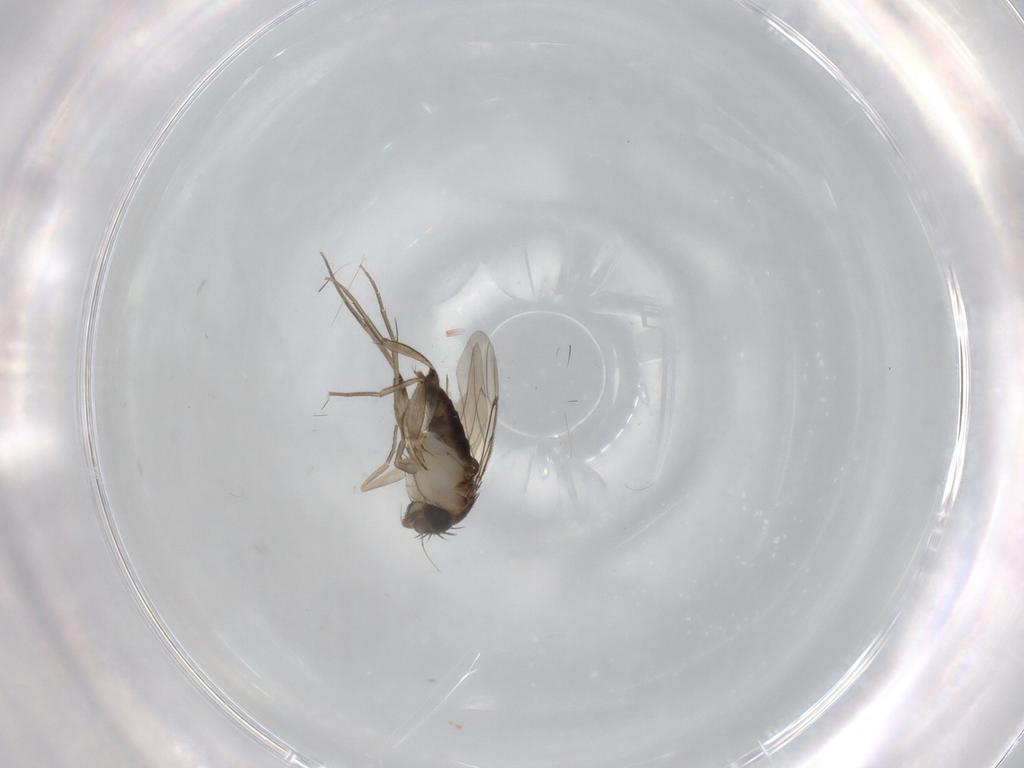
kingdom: Animalia
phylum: Arthropoda
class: Insecta
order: Diptera
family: Phoridae
